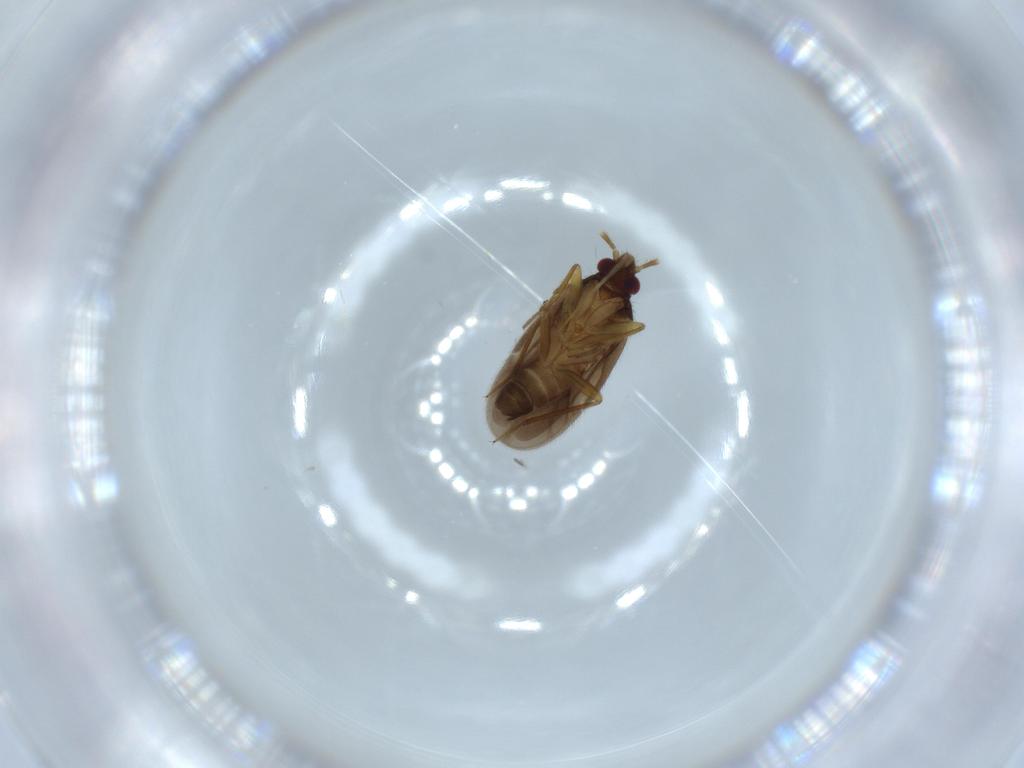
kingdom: Animalia
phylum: Arthropoda
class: Insecta
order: Hemiptera
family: Ceratocombidae
